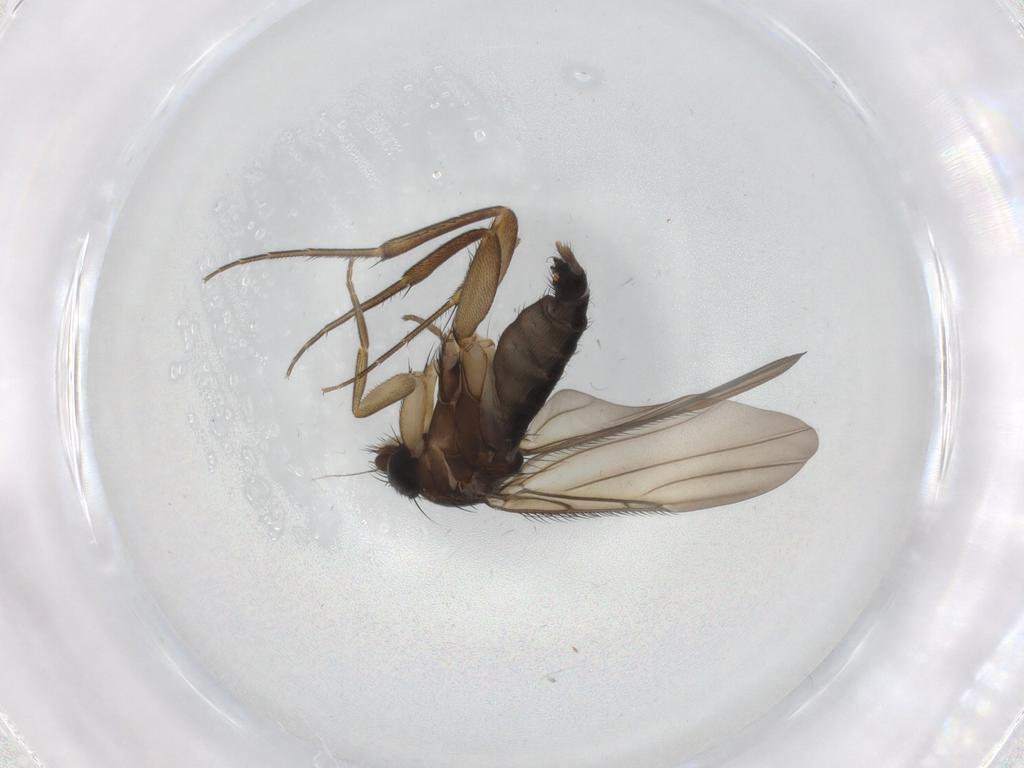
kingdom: Animalia
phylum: Arthropoda
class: Insecta
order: Diptera
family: Phoridae
